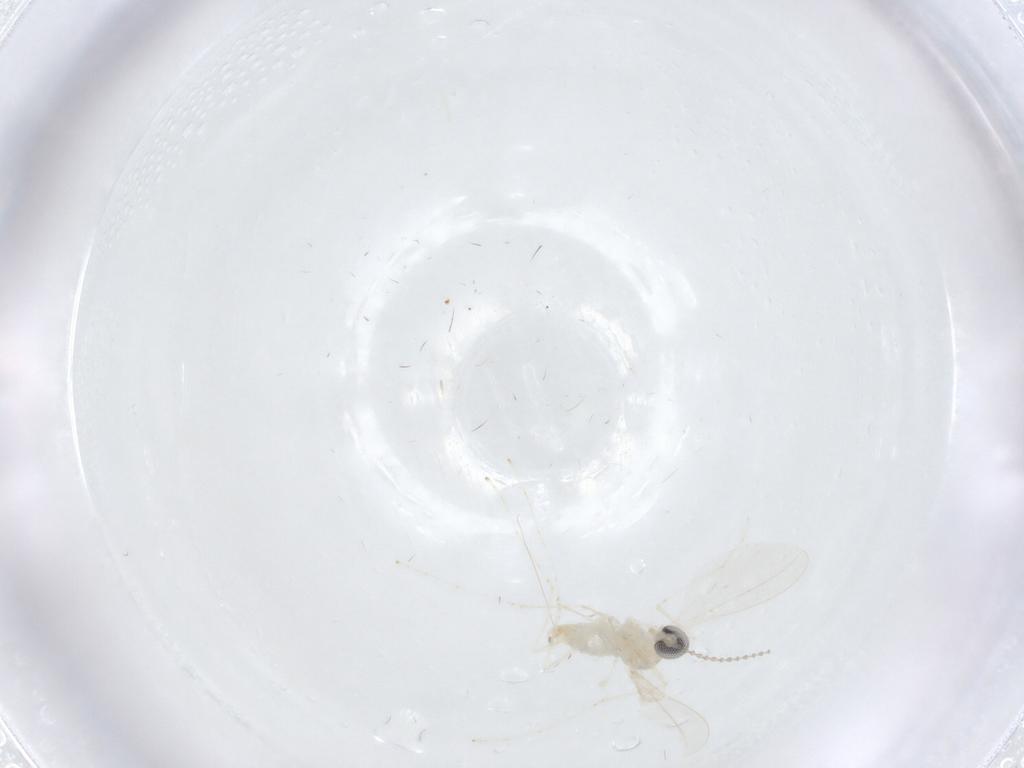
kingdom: Animalia
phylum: Arthropoda
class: Insecta
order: Diptera
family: Cecidomyiidae
